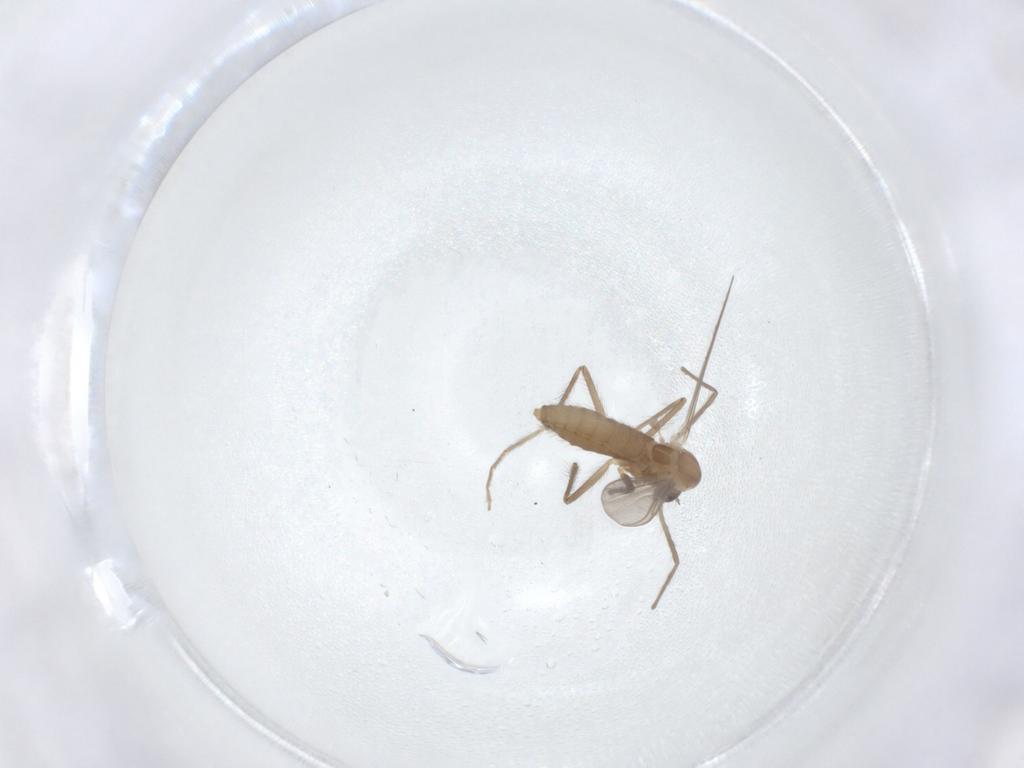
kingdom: Animalia
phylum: Arthropoda
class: Insecta
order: Diptera
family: Chironomidae
